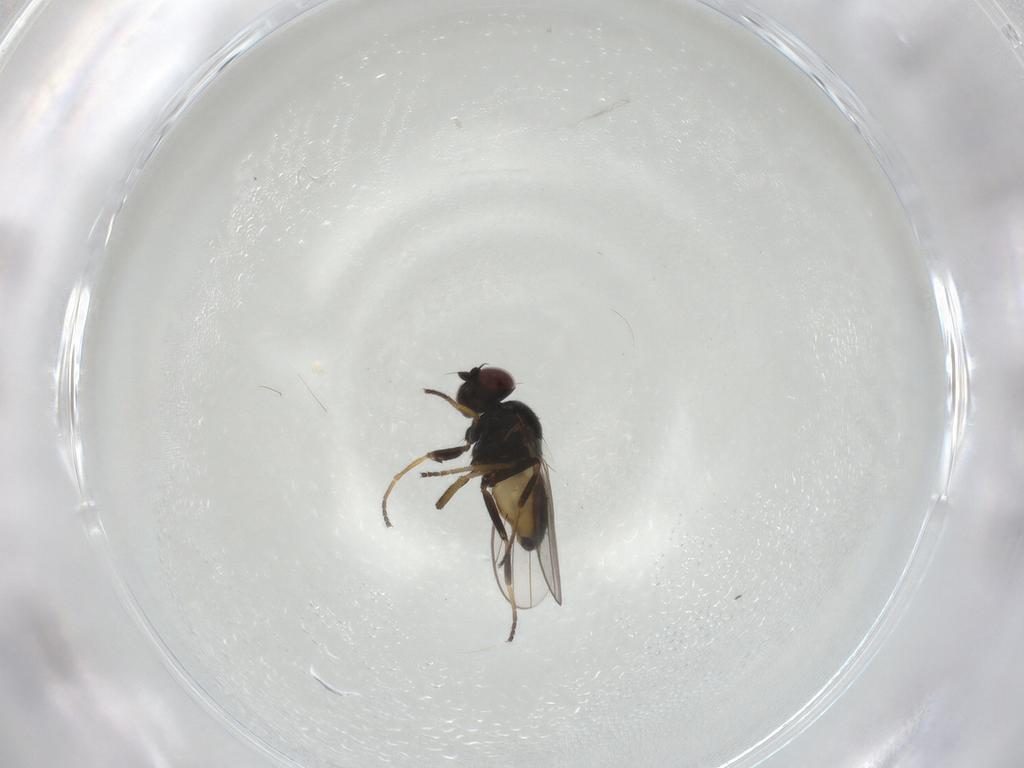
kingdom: Animalia
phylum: Arthropoda
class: Insecta
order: Diptera
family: Chloropidae
